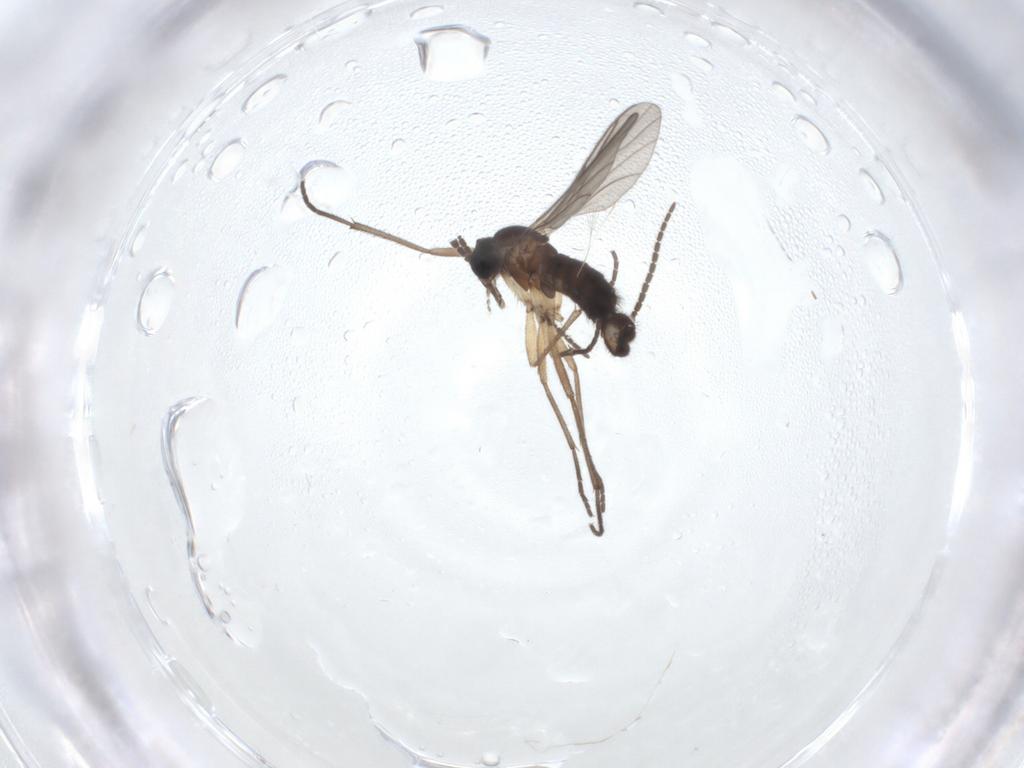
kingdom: Animalia
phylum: Arthropoda
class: Insecta
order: Diptera
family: Sciaridae
